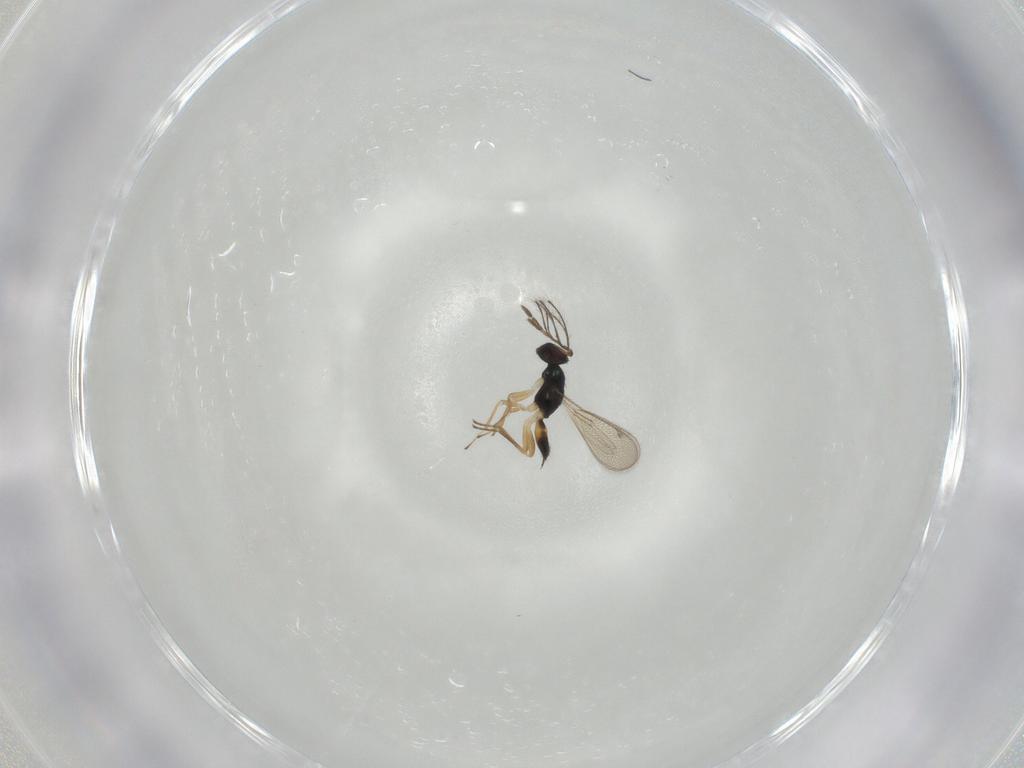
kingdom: Animalia
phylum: Arthropoda
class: Insecta
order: Hymenoptera
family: Eulophidae
